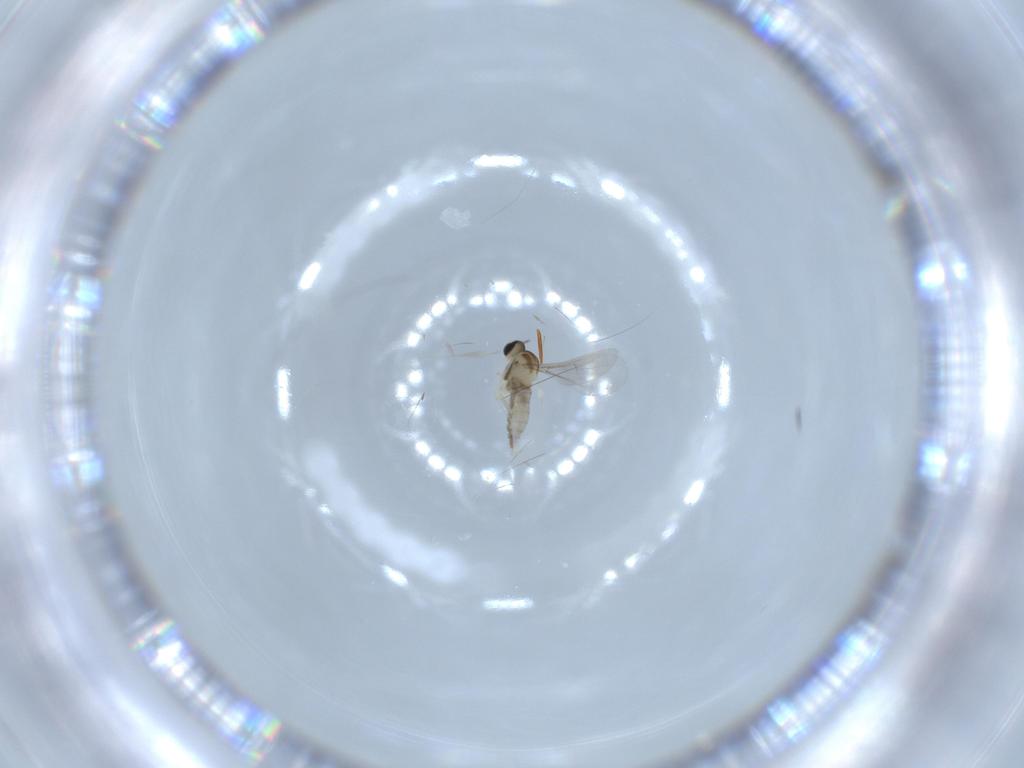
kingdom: Animalia
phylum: Arthropoda
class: Insecta
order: Diptera
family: Cecidomyiidae
